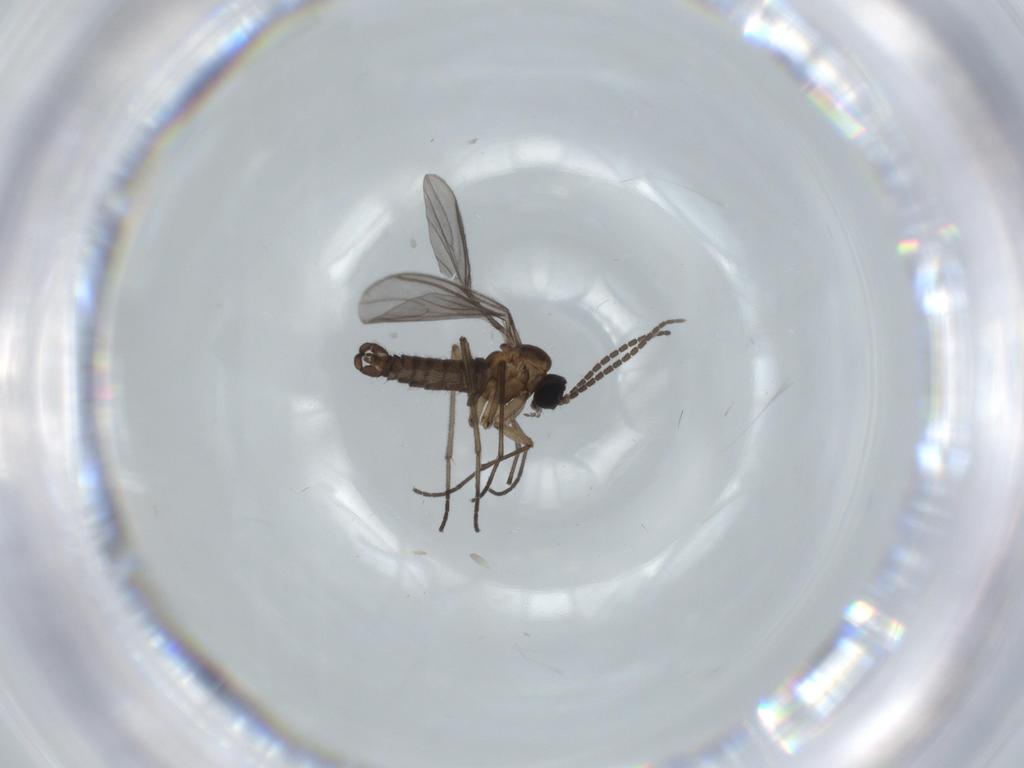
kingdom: Animalia
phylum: Arthropoda
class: Insecta
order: Diptera
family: Sciaridae
